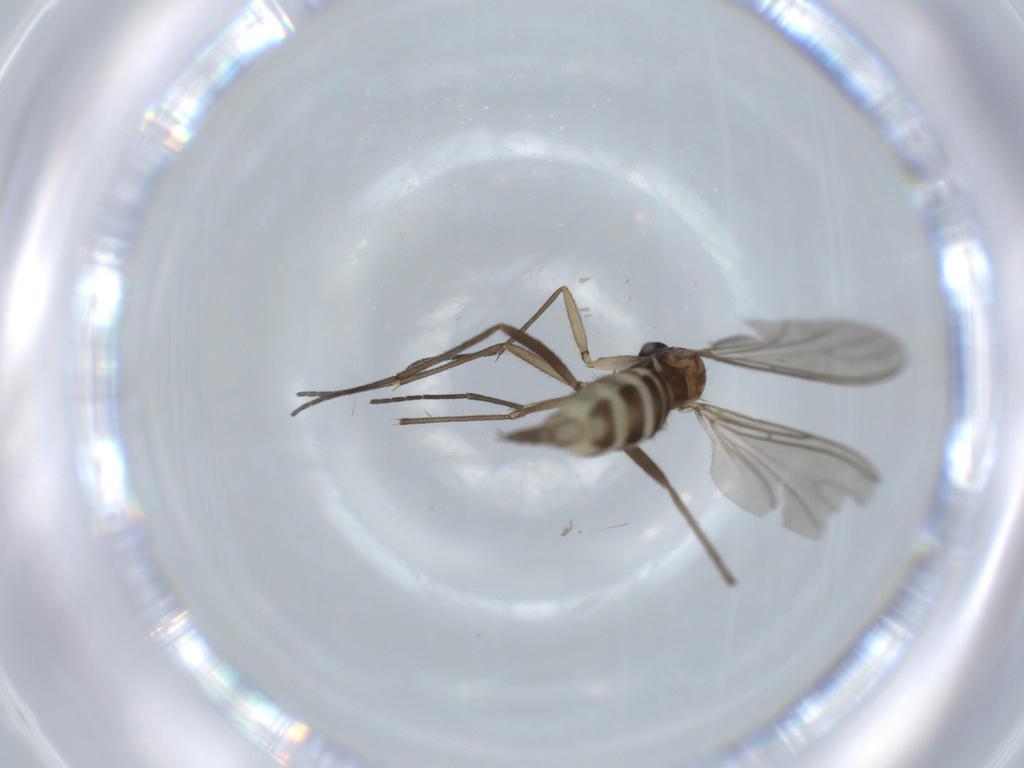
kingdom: Animalia
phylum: Arthropoda
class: Insecta
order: Diptera
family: Sciaridae
